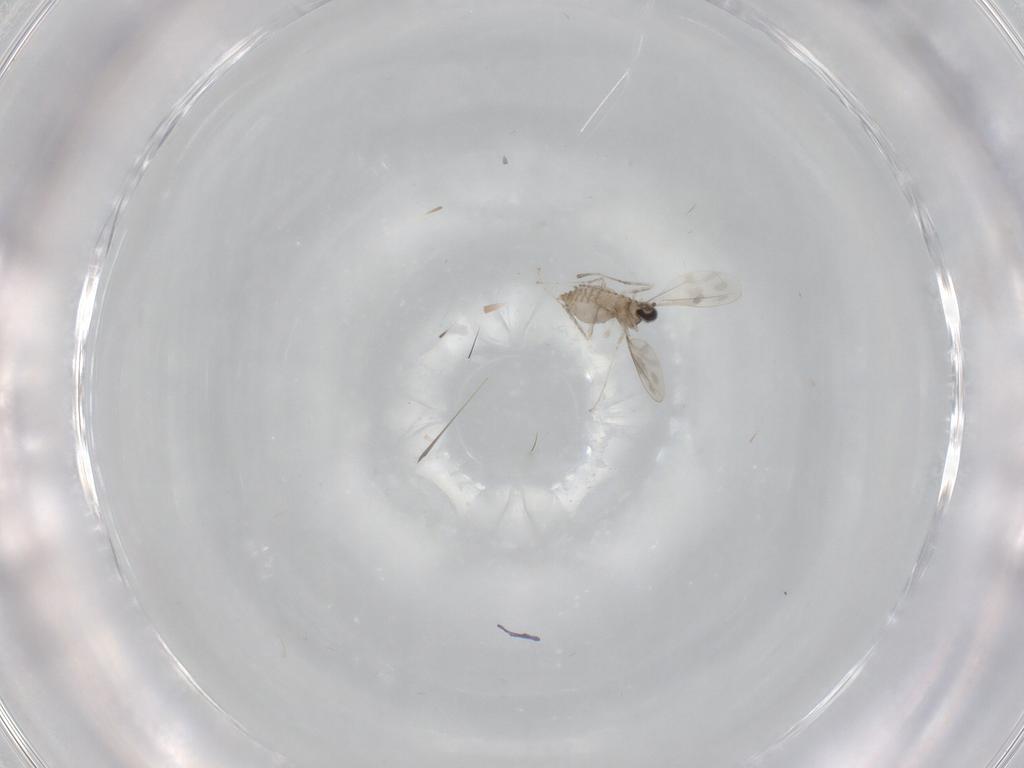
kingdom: Animalia
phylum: Arthropoda
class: Insecta
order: Diptera
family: Cecidomyiidae
